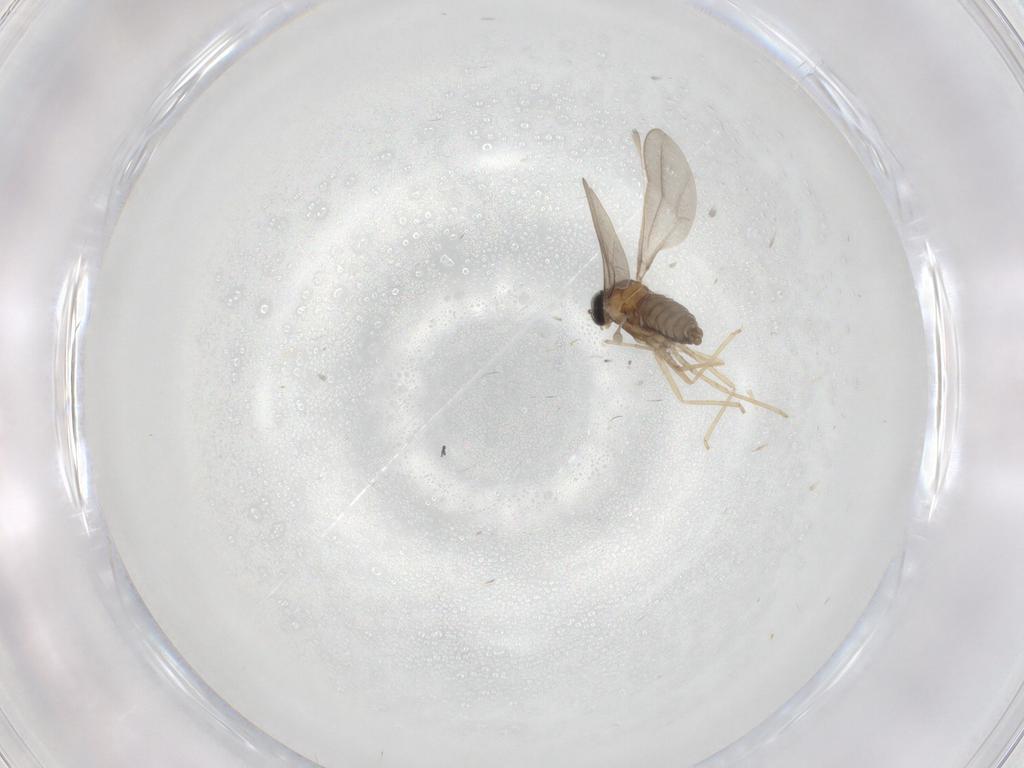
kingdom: Animalia
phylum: Arthropoda
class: Insecta
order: Diptera
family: Cecidomyiidae
